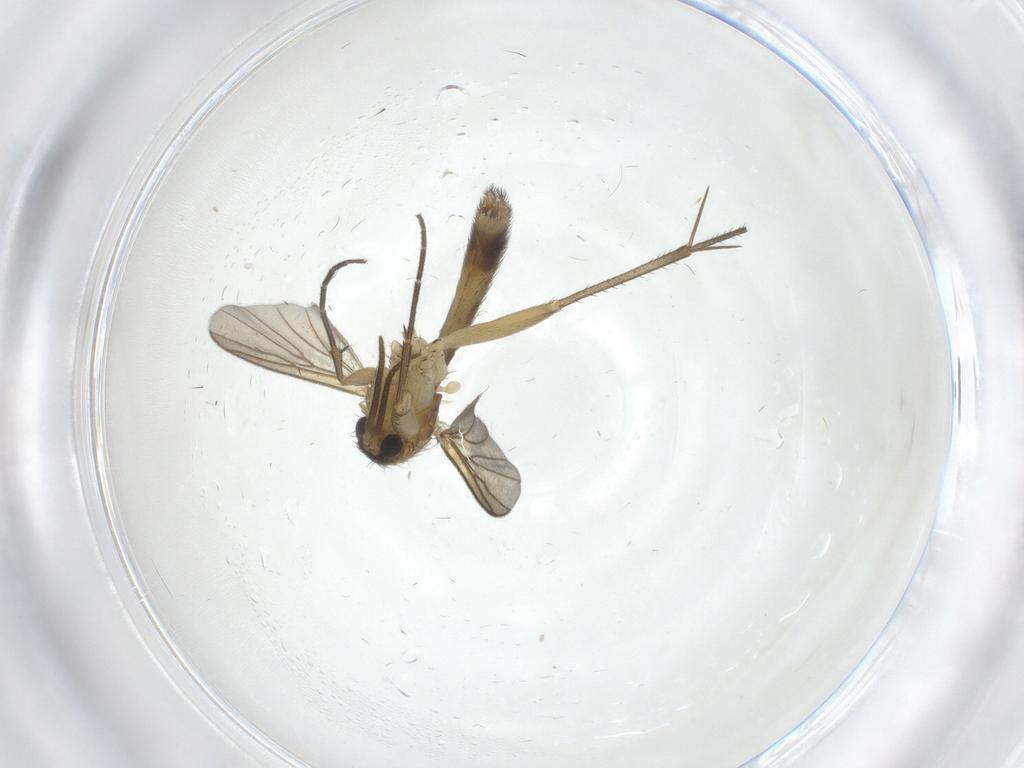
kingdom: Animalia
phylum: Arthropoda
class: Insecta
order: Diptera
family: Mycetophilidae
